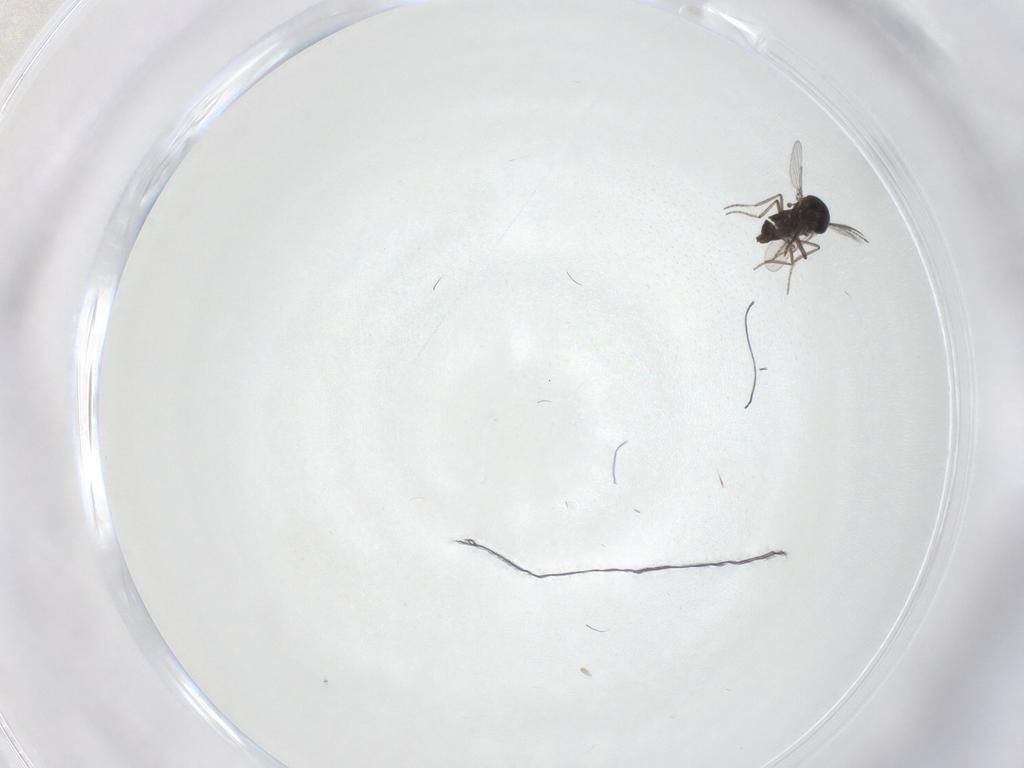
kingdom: Animalia
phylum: Arthropoda
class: Insecta
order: Diptera
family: Ceratopogonidae
